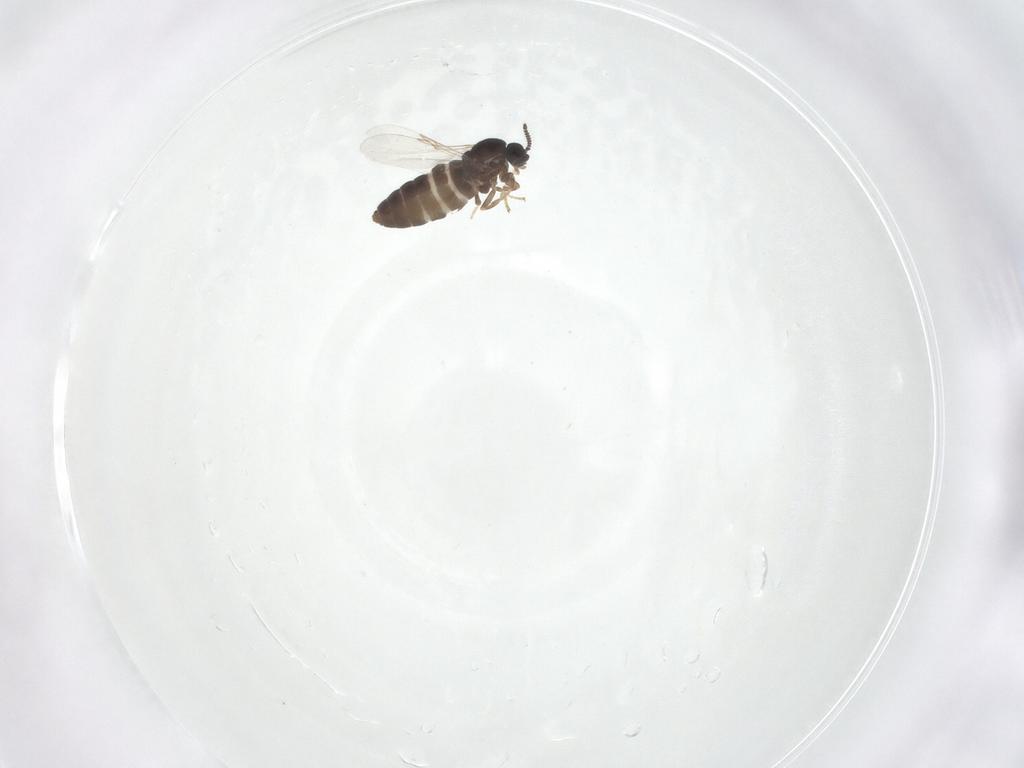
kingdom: Animalia
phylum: Arthropoda
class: Insecta
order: Diptera
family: Scatopsidae
